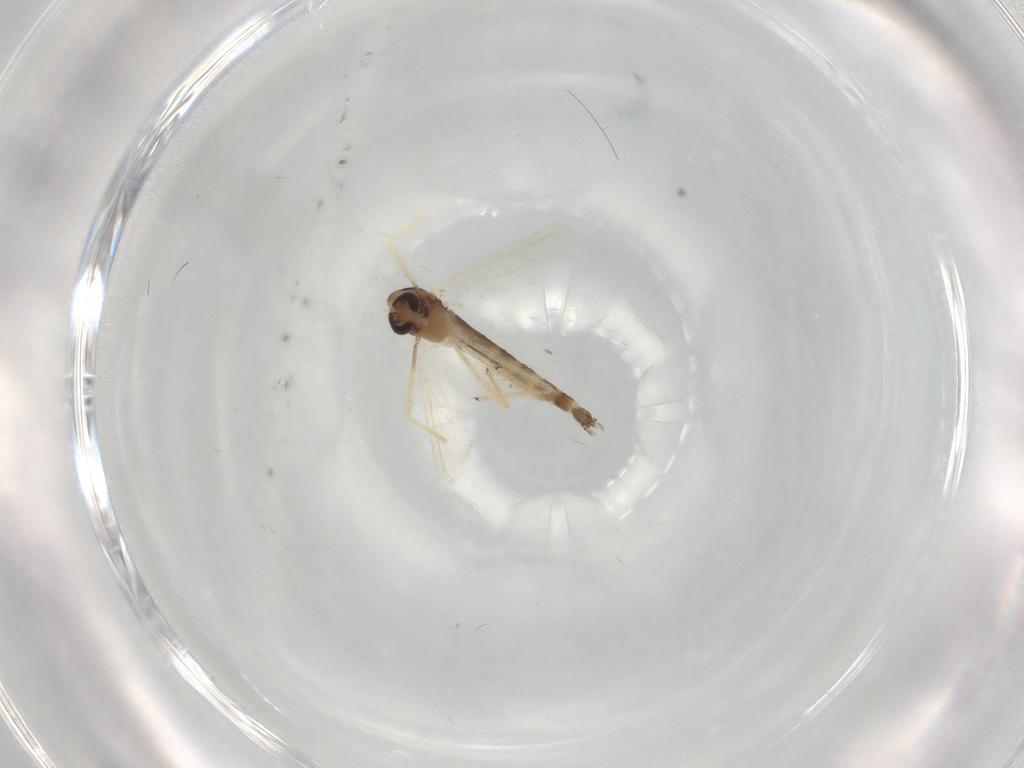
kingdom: Animalia
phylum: Arthropoda
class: Insecta
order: Diptera
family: Chironomidae
